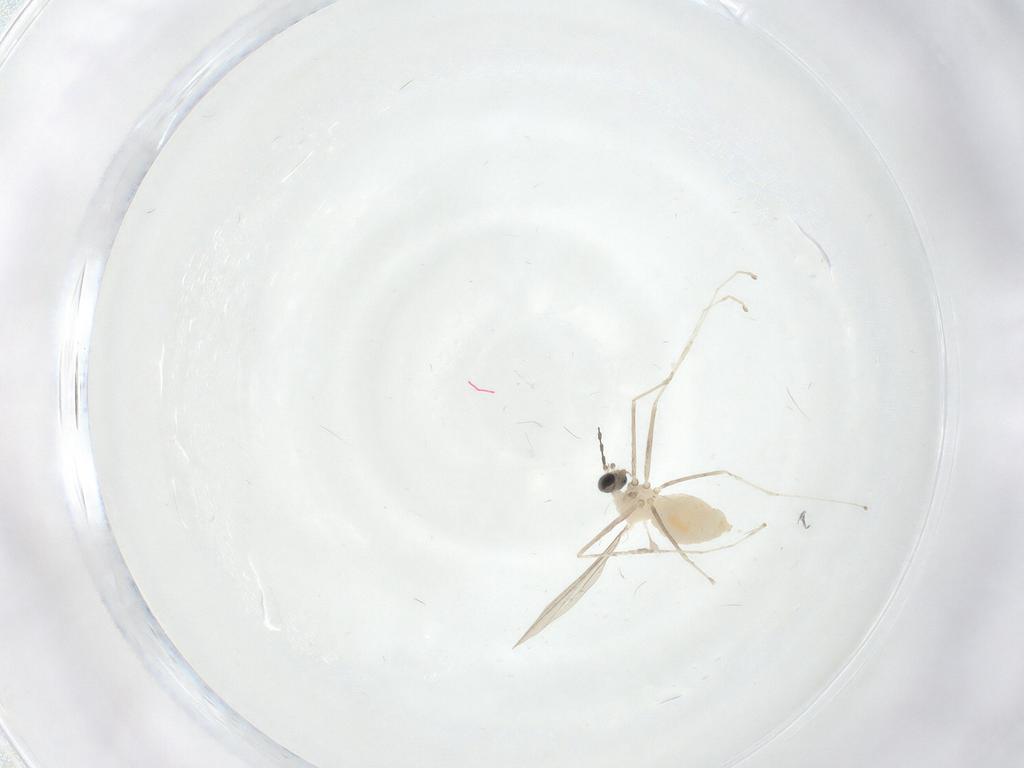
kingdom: Animalia
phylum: Arthropoda
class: Insecta
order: Diptera
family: Cecidomyiidae
